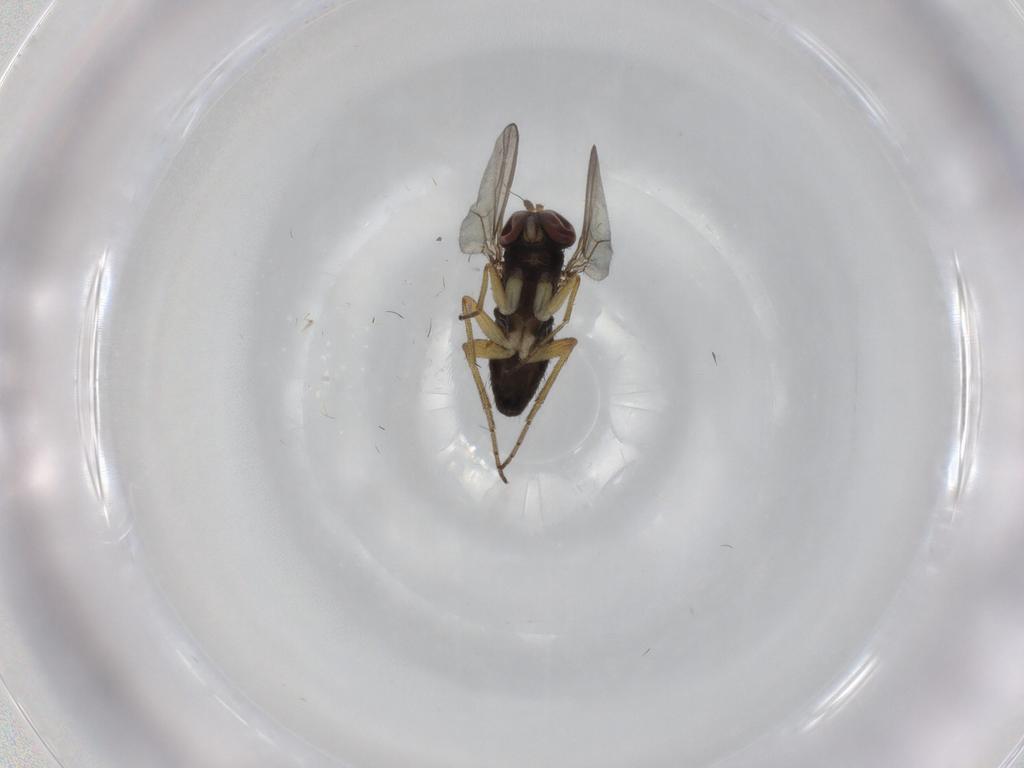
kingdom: Animalia
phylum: Arthropoda
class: Insecta
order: Diptera
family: Dolichopodidae
